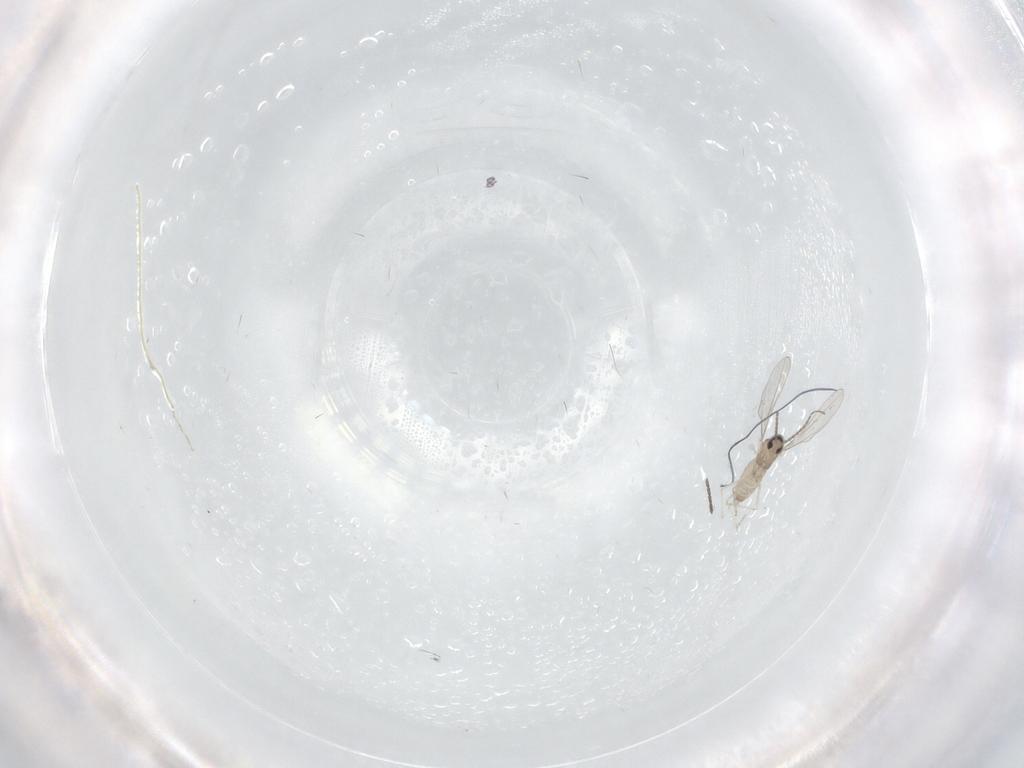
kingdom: Animalia
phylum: Arthropoda
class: Insecta
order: Diptera
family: Cecidomyiidae
